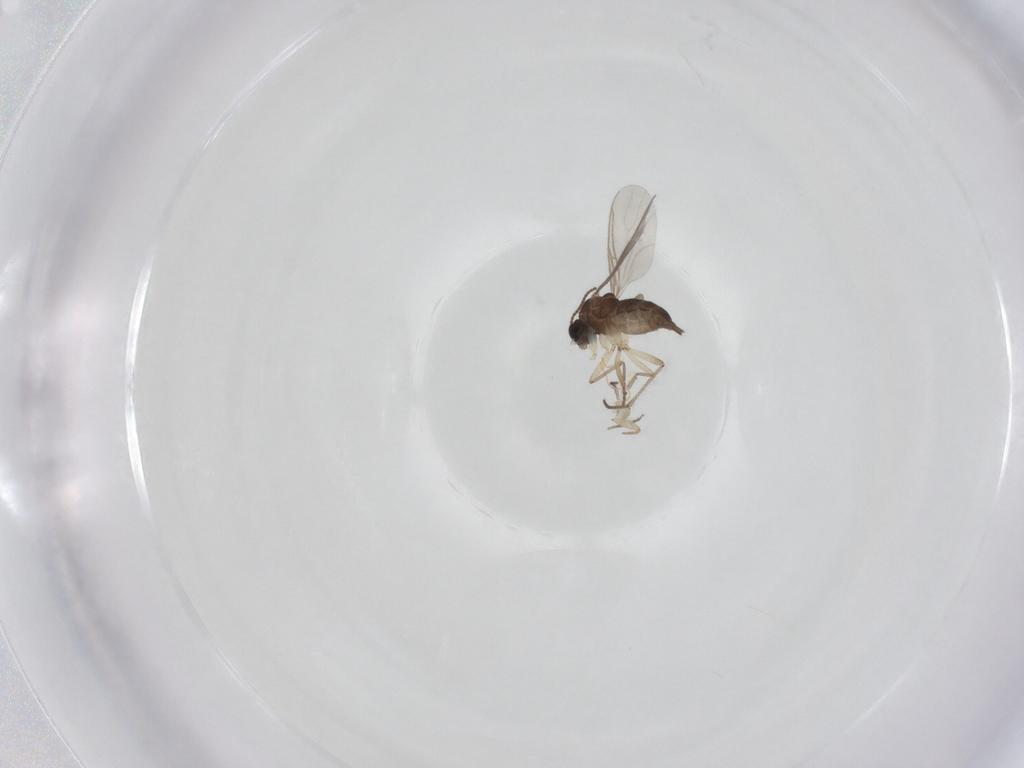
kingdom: Animalia
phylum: Arthropoda
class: Insecta
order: Diptera
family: Sciaridae
